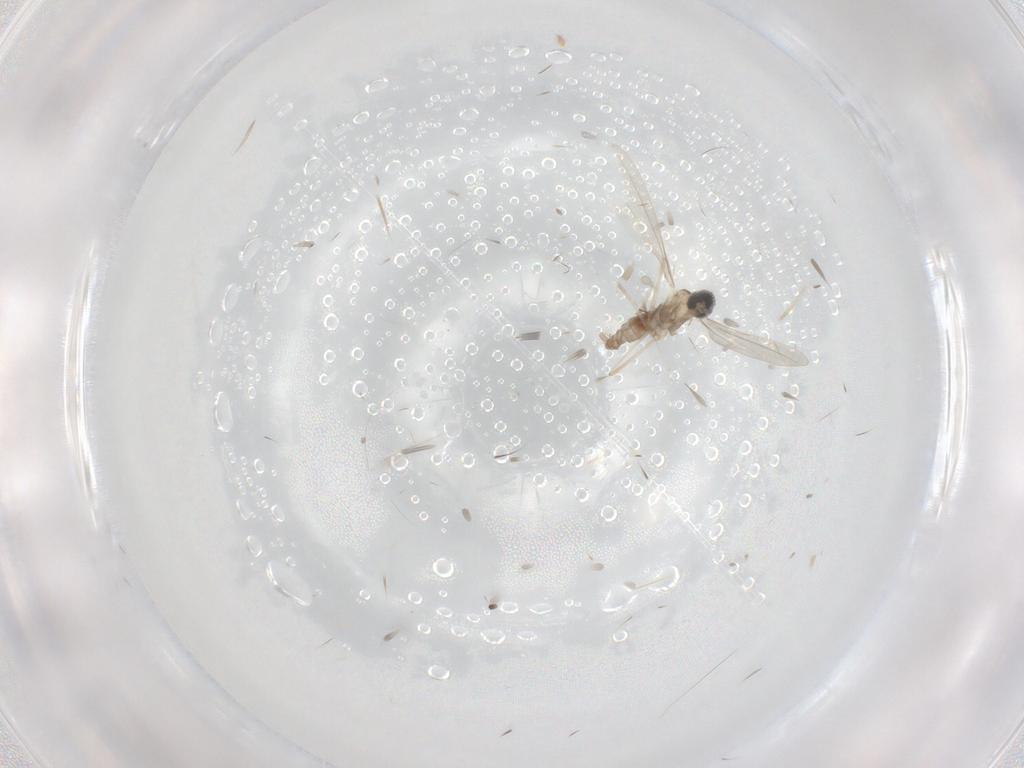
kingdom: Animalia
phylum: Arthropoda
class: Insecta
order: Diptera
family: Cecidomyiidae
